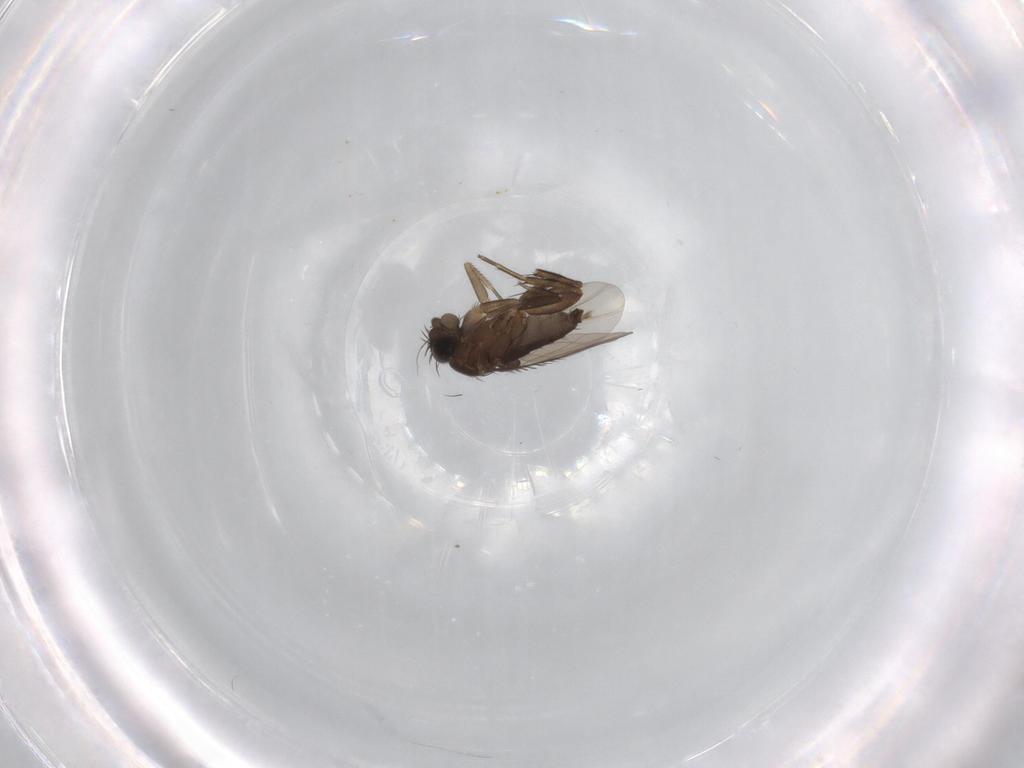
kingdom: Animalia
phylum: Arthropoda
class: Insecta
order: Diptera
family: Phoridae
